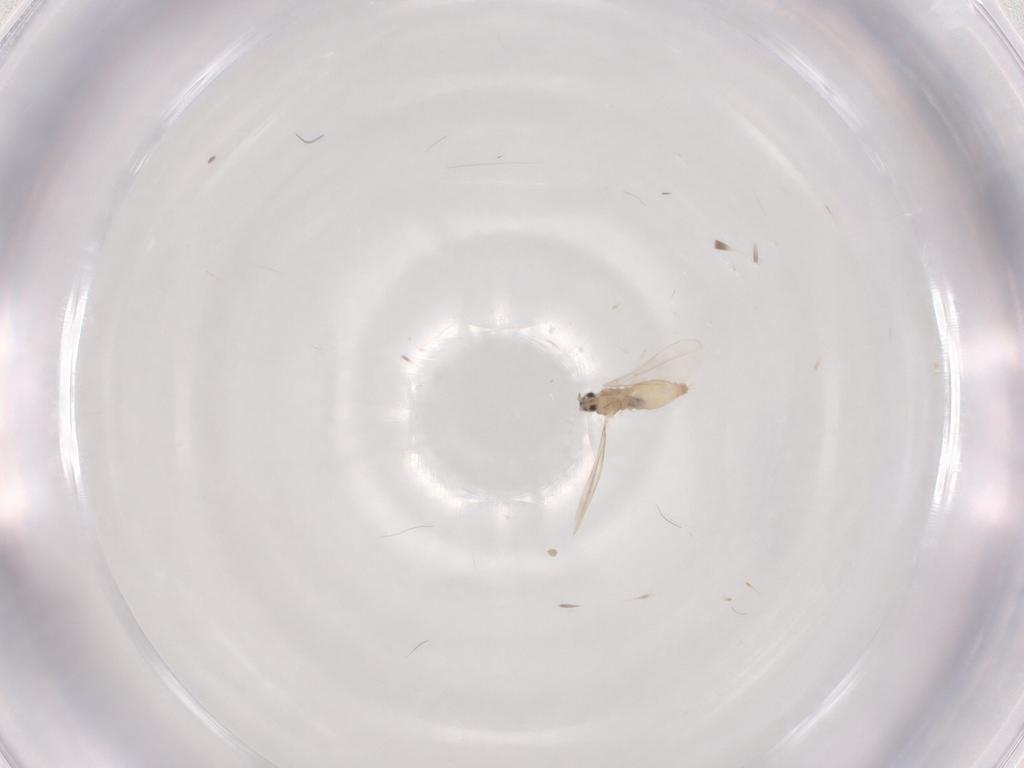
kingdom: Animalia
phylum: Arthropoda
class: Insecta
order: Diptera
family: Cecidomyiidae
